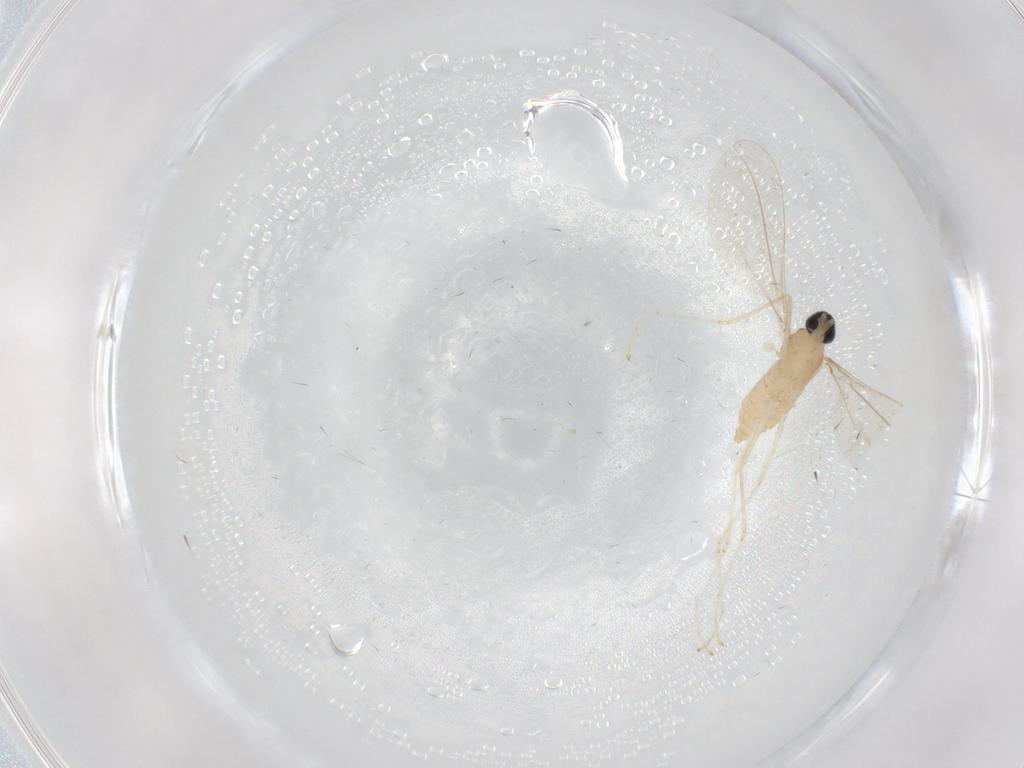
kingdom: Animalia
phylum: Arthropoda
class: Insecta
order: Diptera
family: Cecidomyiidae
